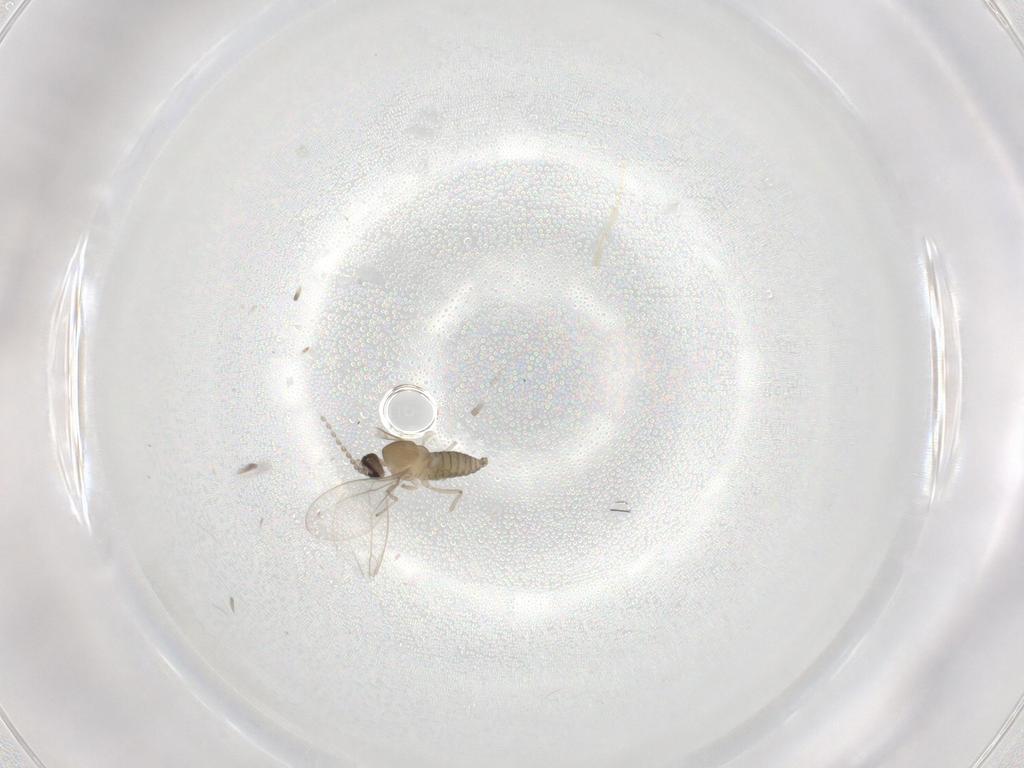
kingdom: Animalia
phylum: Arthropoda
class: Insecta
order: Diptera
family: Cecidomyiidae
